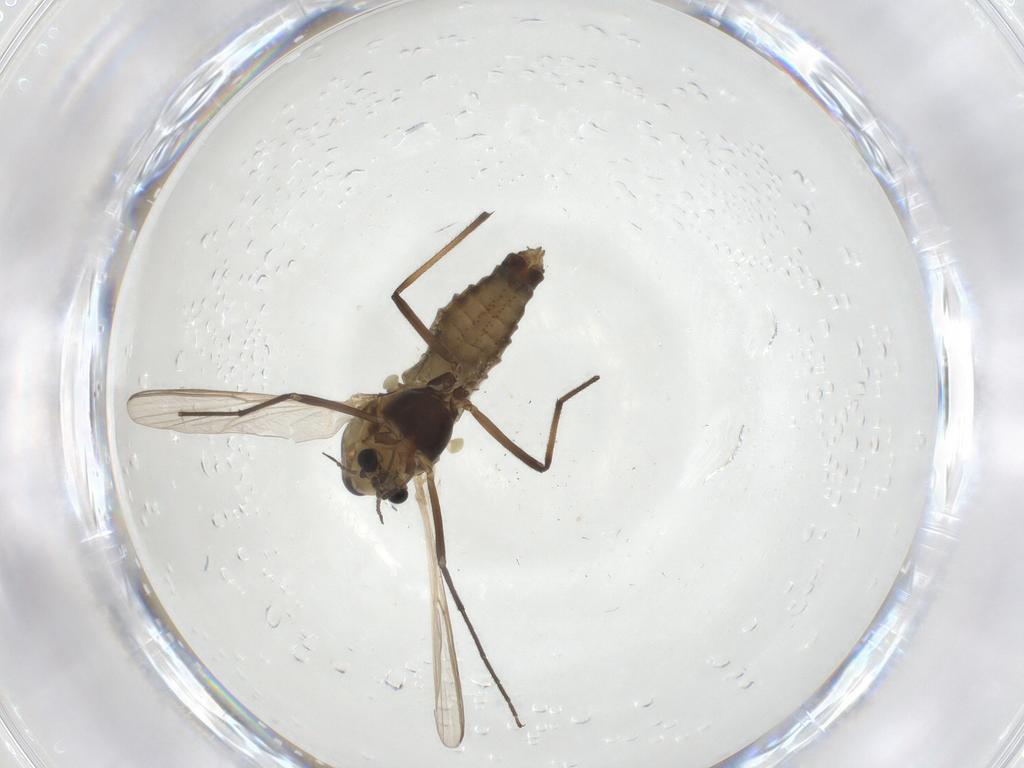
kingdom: Animalia
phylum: Arthropoda
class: Insecta
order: Diptera
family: Chironomidae
